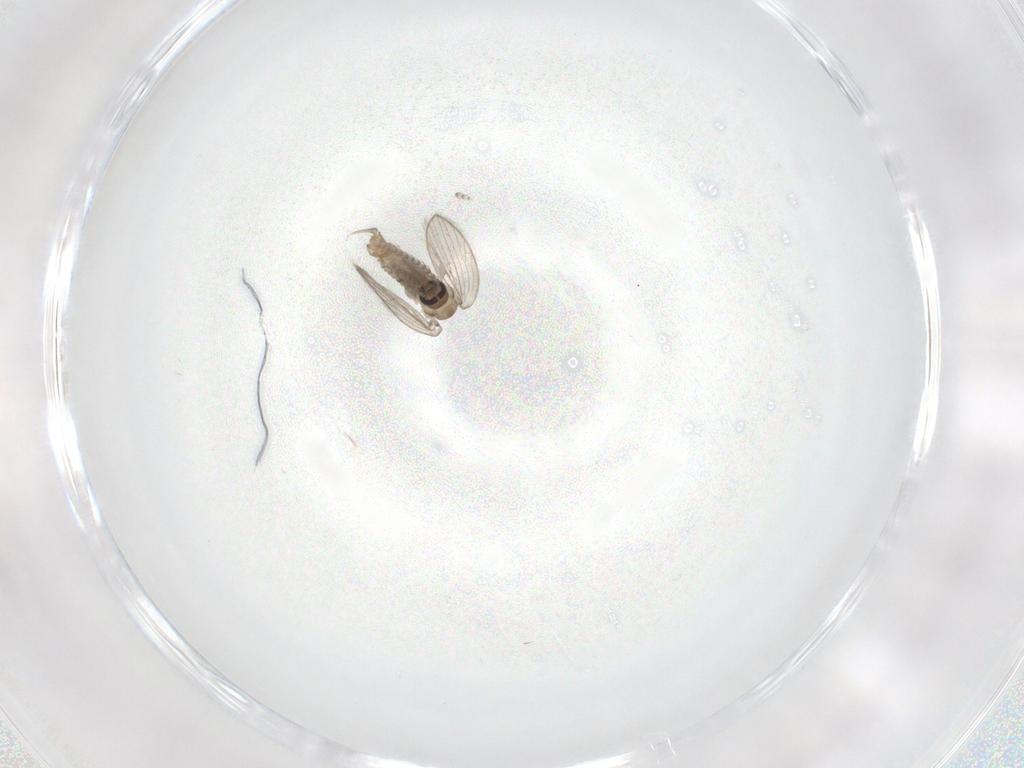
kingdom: Animalia
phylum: Arthropoda
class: Insecta
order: Diptera
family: Psychodidae
